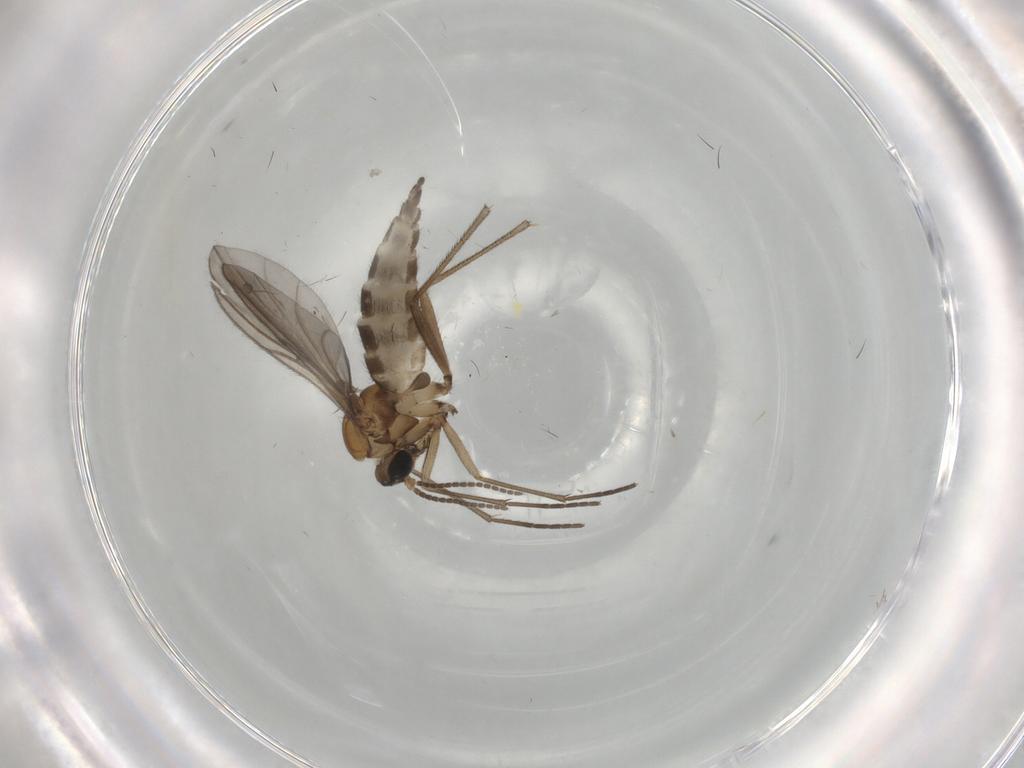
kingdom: Animalia
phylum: Arthropoda
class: Insecta
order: Diptera
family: Sciaridae
